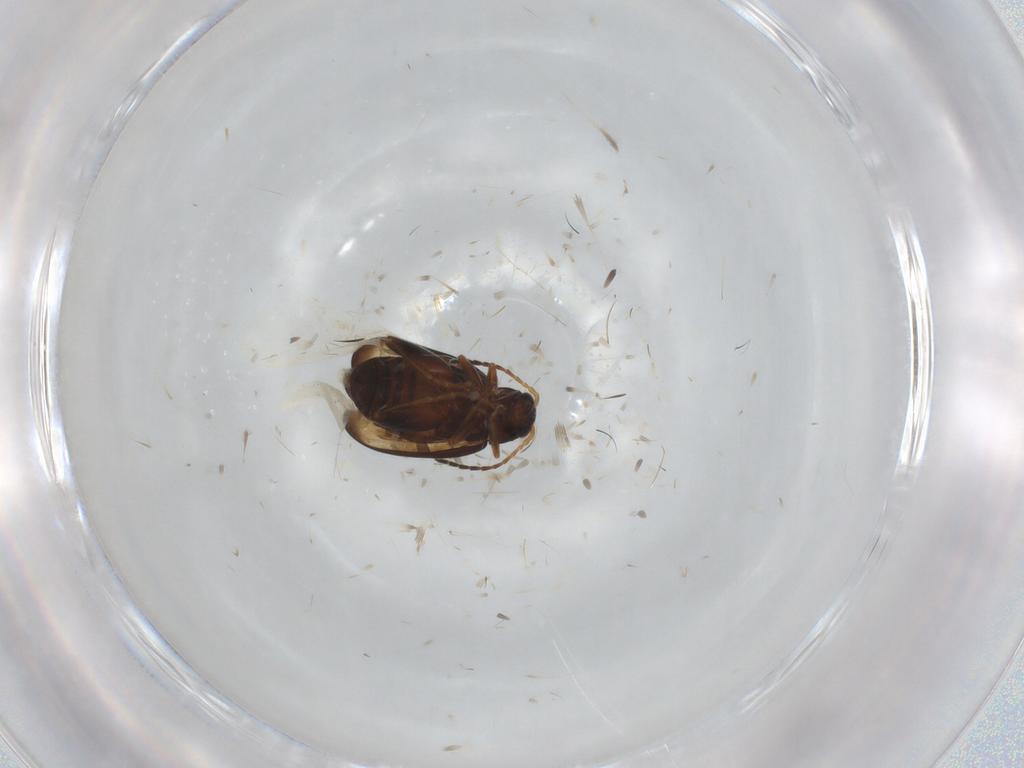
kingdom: Animalia
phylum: Arthropoda
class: Insecta
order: Coleoptera
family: Chrysomelidae
